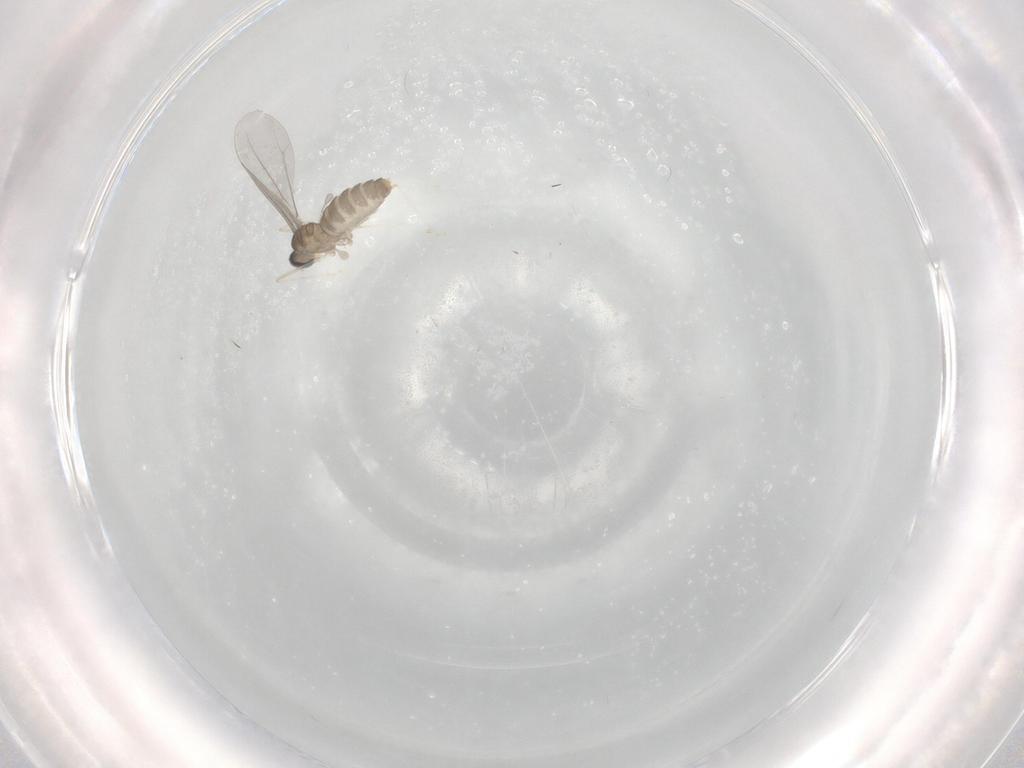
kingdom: Animalia
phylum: Arthropoda
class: Insecta
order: Diptera
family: Cecidomyiidae
